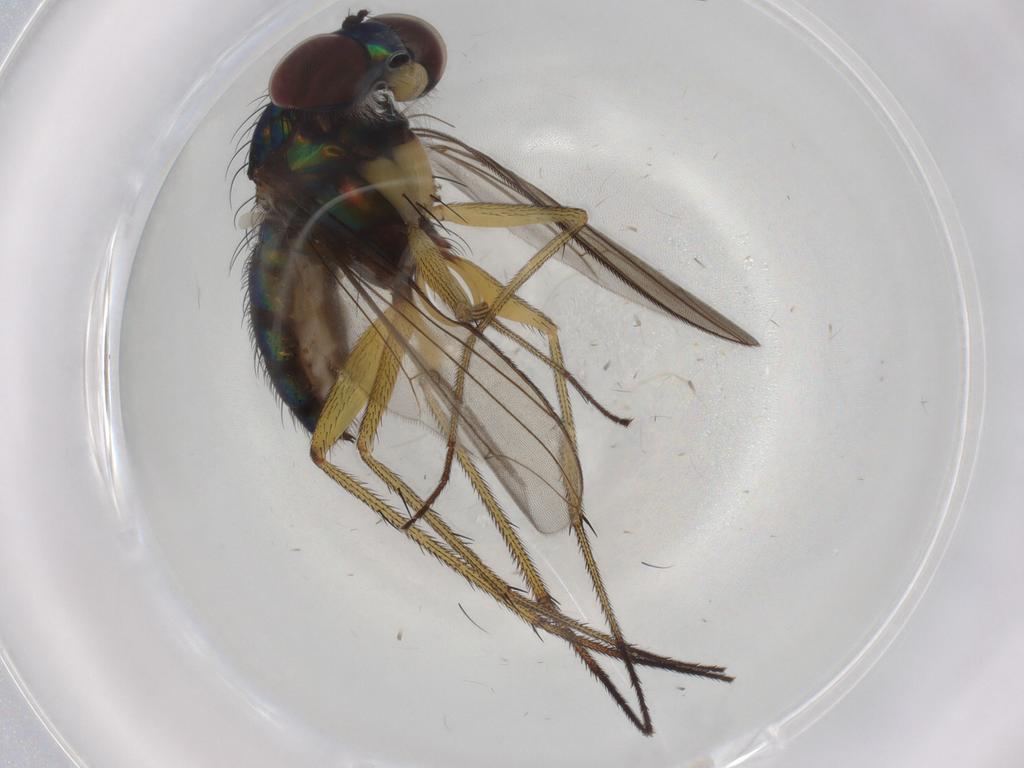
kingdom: Animalia
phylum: Arthropoda
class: Insecta
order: Diptera
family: Dolichopodidae
